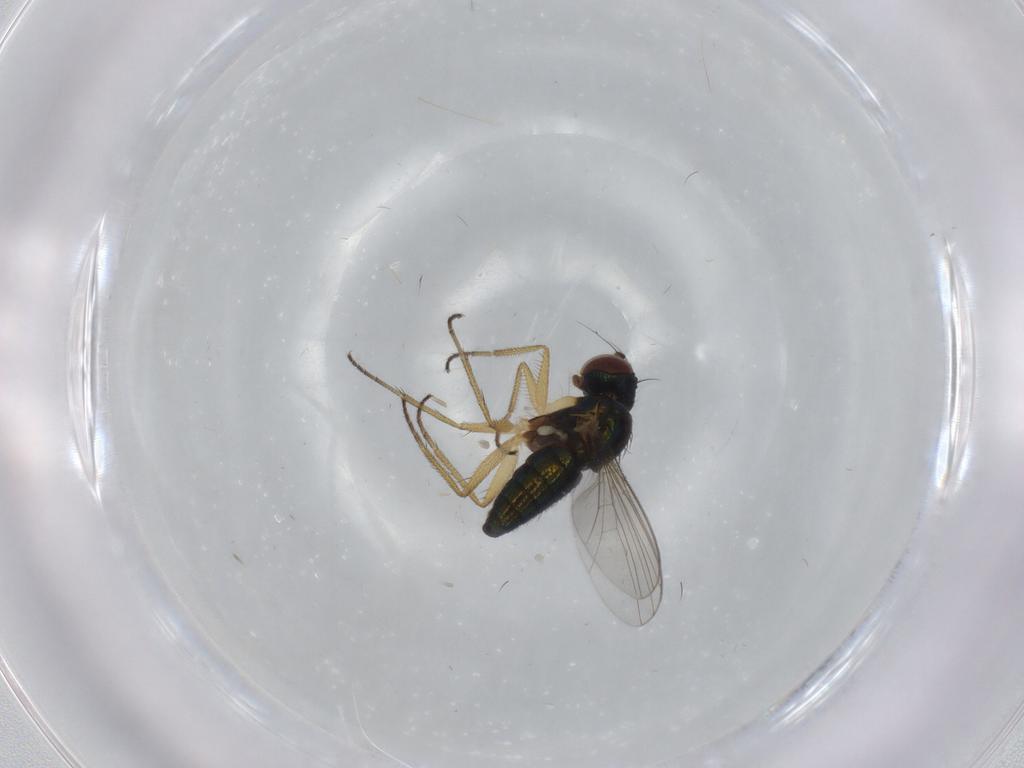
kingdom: Animalia
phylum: Arthropoda
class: Insecta
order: Diptera
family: Dolichopodidae
